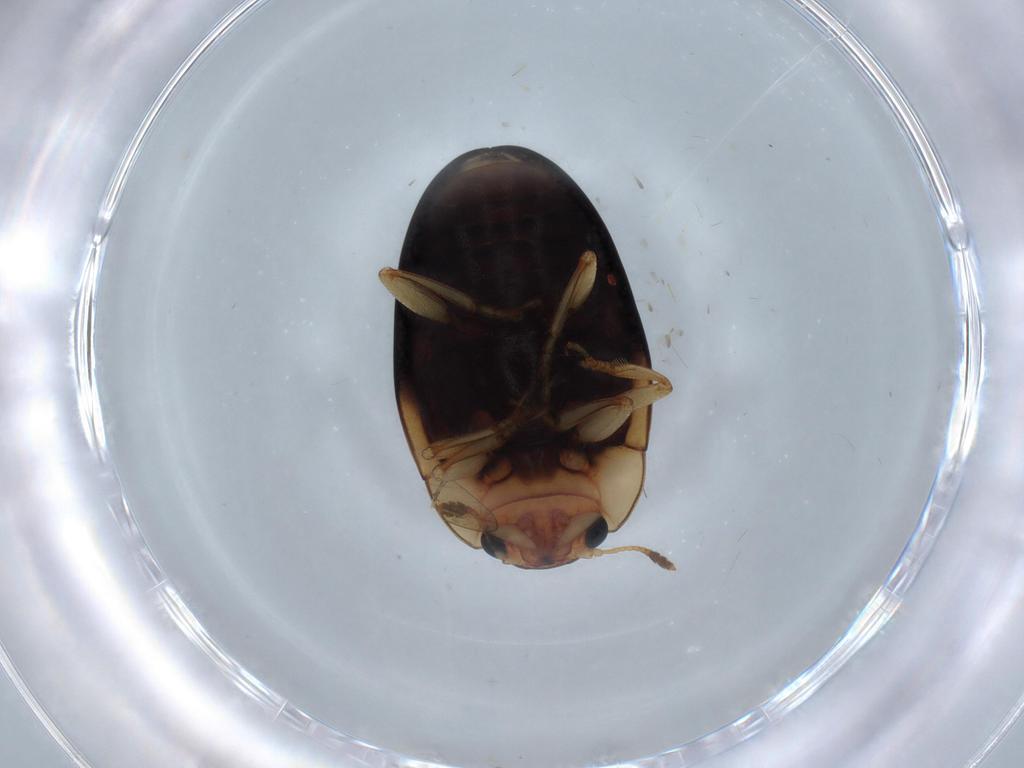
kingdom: Animalia
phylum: Arthropoda
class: Insecta
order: Coleoptera
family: Erotylidae
